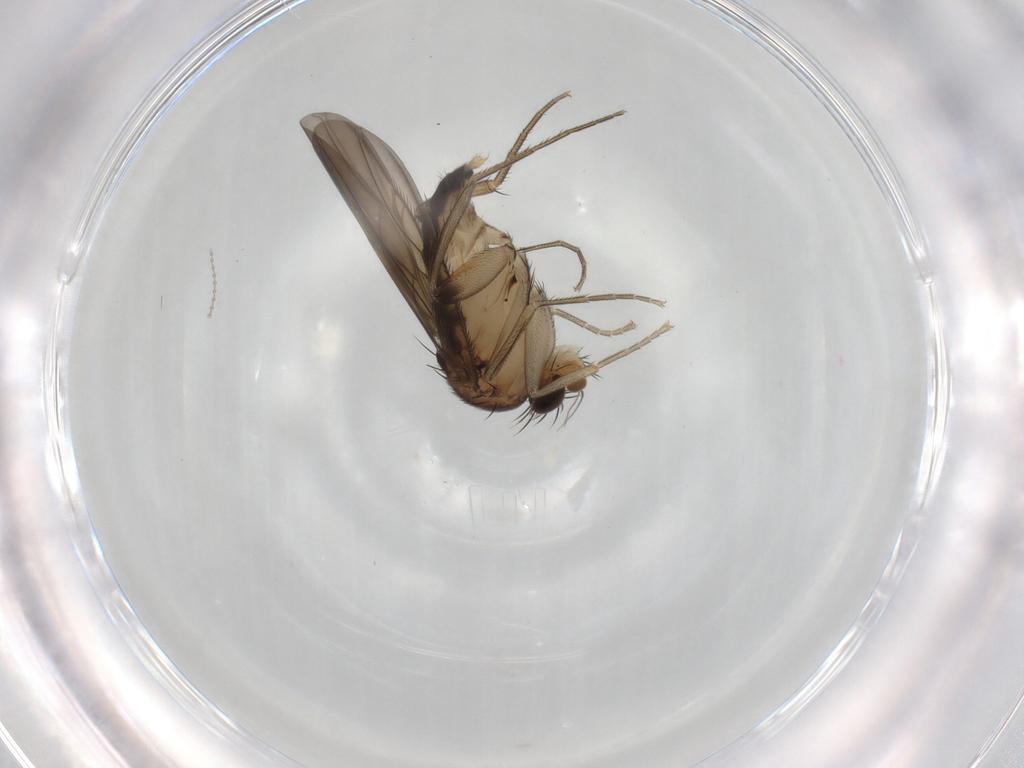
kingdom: Animalia
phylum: Arthropoda
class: Insecta
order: Diptera
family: Phoridae
